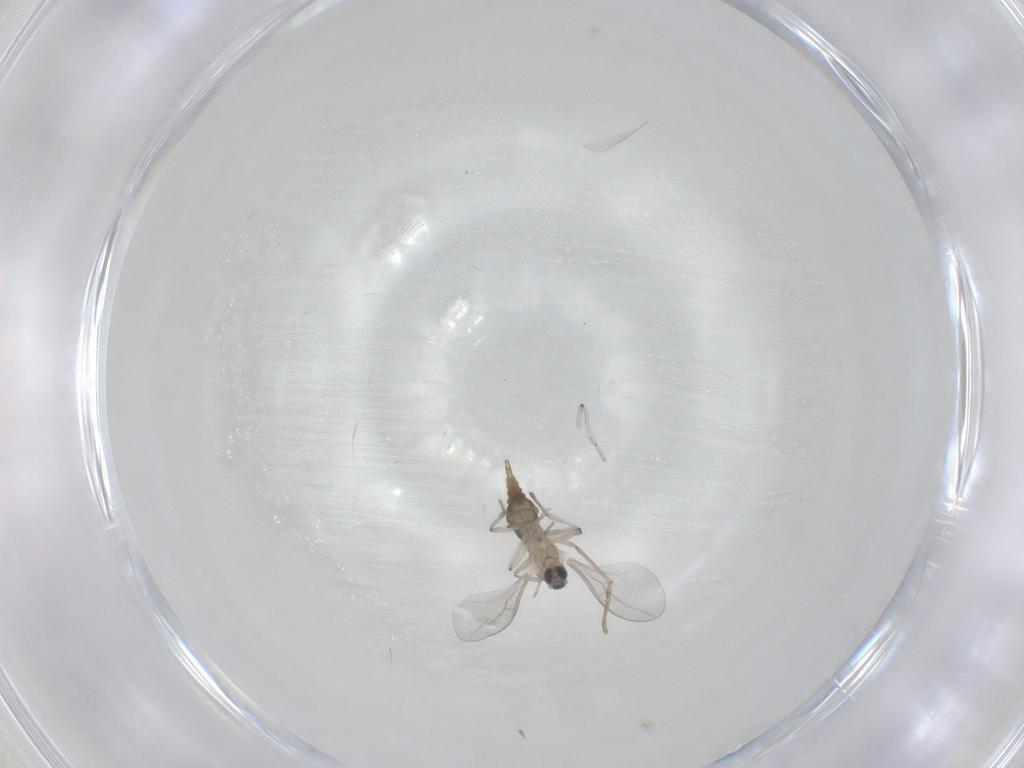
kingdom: Animalia
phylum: Arthropoda
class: Insecta
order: Diptera
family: Cecidomyiidae
